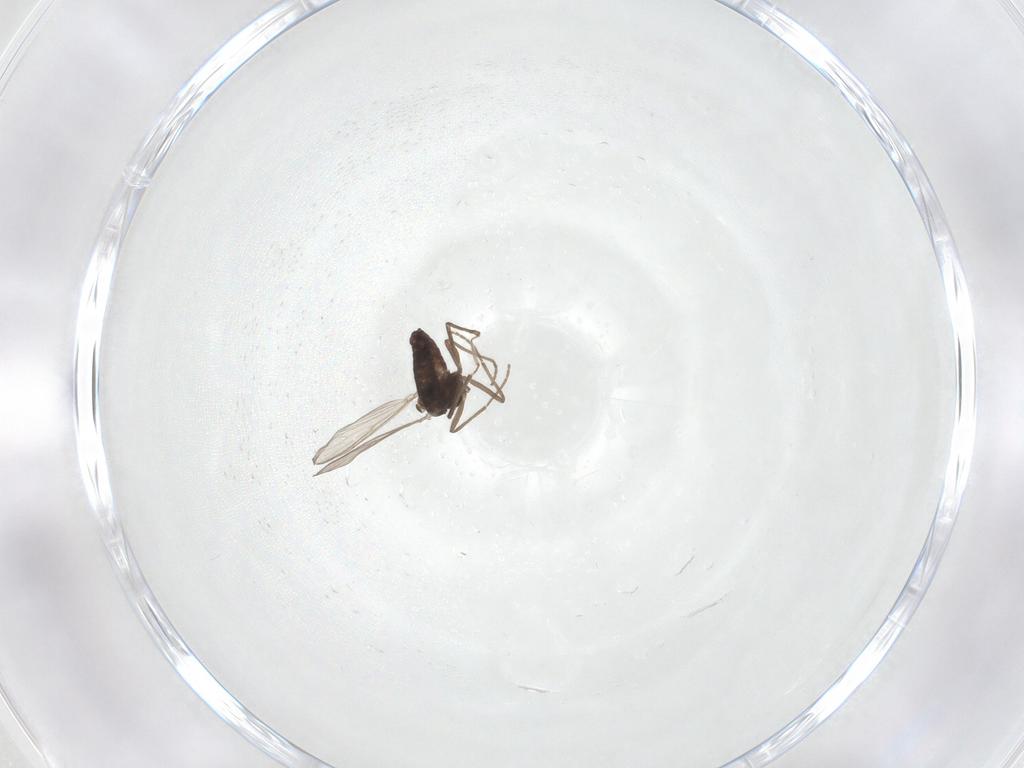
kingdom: Animalia
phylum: Arthropoda
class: Insecta
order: Diptera
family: Chironomidae
